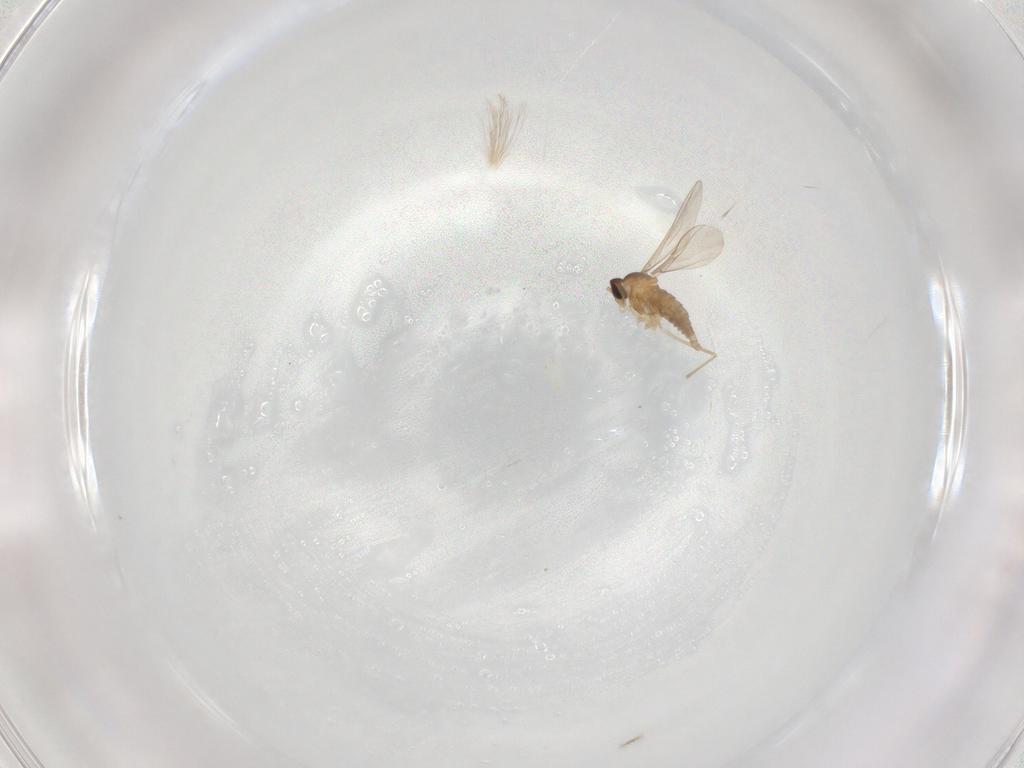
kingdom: Animalia
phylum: Arthropoda
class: Insecta
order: Diptera
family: Cecidomyiidae
